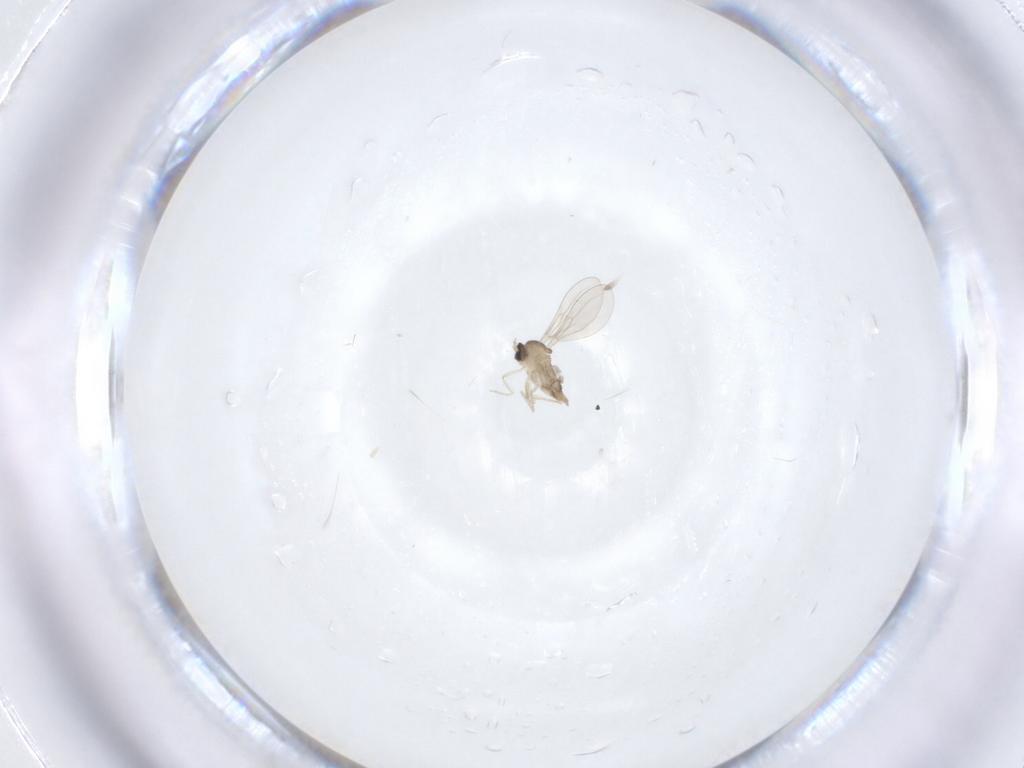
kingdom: Animalia
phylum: Arthropoda
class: Insecta
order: Diptera
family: Cecidomyiidae
